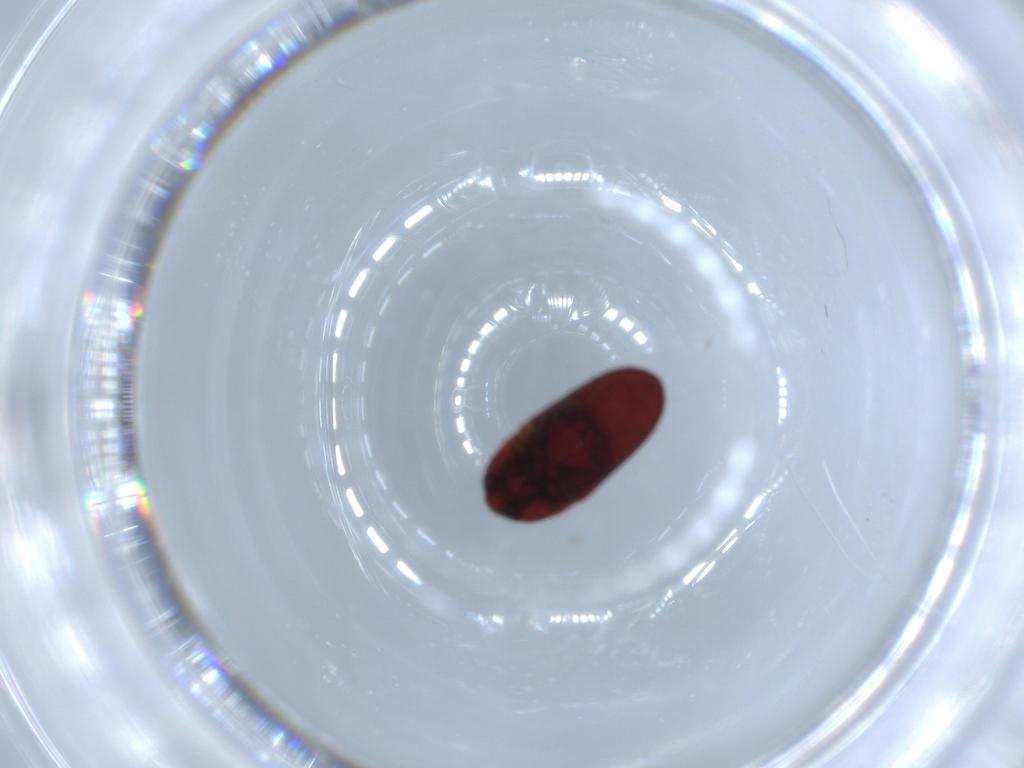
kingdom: Animalia
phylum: Arthropoda
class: Insecta
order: Coleoptera
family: Throscidae
